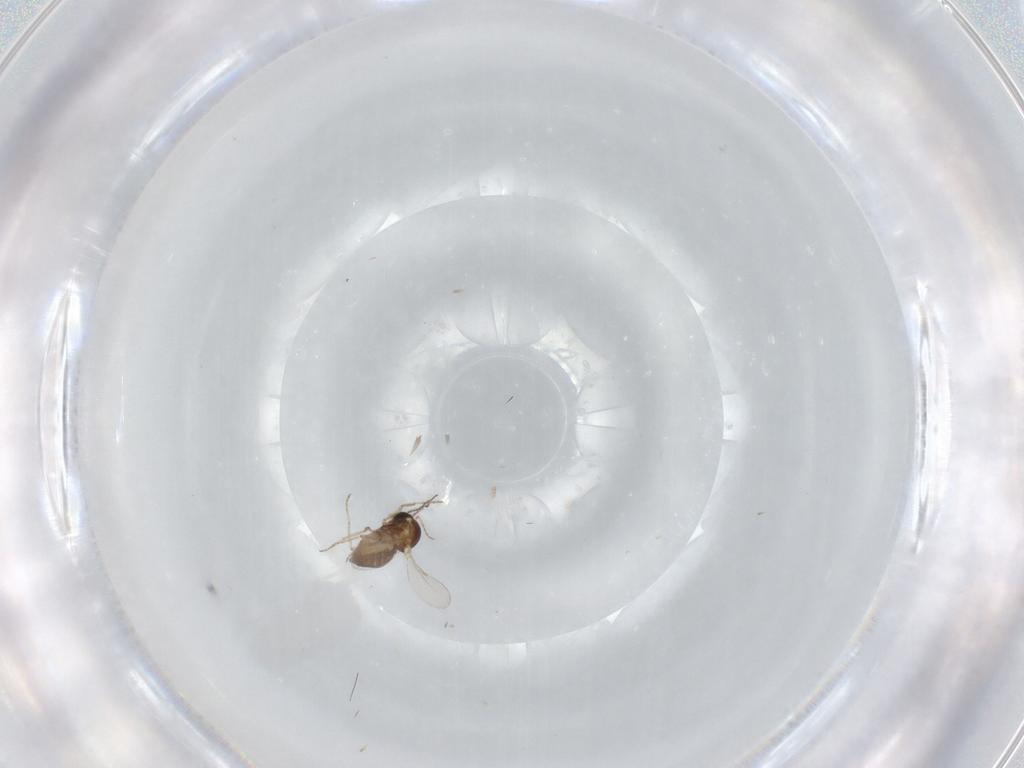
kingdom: Animalia
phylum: Arthropoda
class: Insecta
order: Diptera
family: Ceratopogonidae
